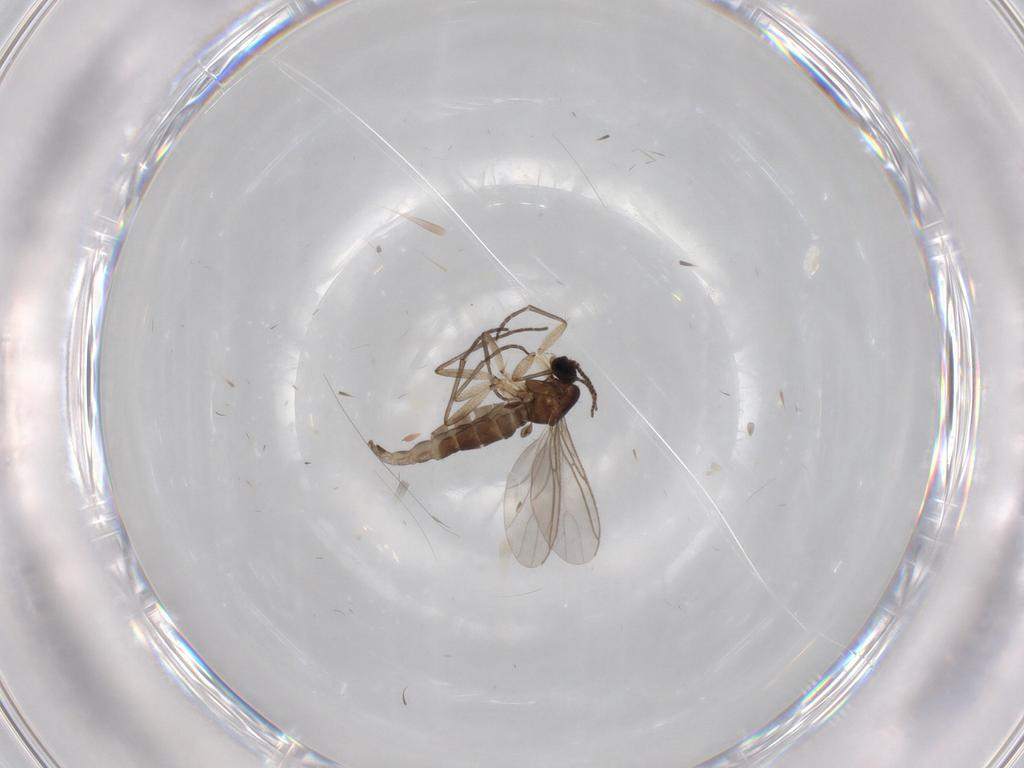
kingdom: Animalia
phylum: Arthropoda
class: Insecta
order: Diptera
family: Sciaridae
